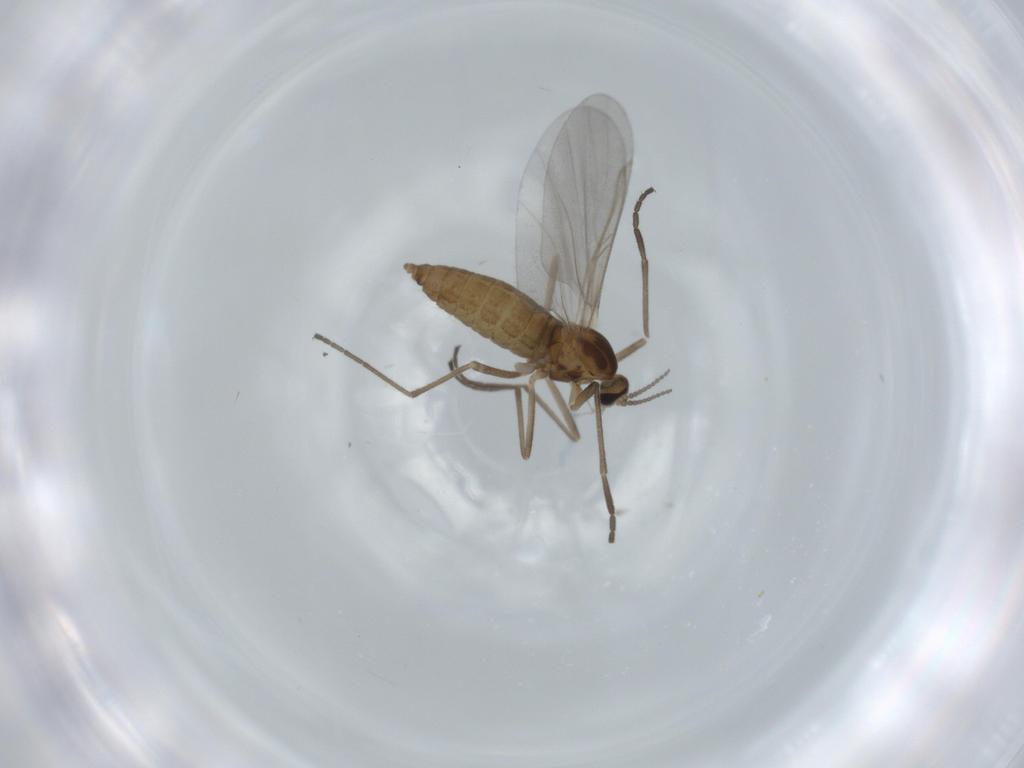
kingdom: Animalia
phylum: Arthropoda
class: Insecta
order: Diptera
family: Cecidomyiidae
